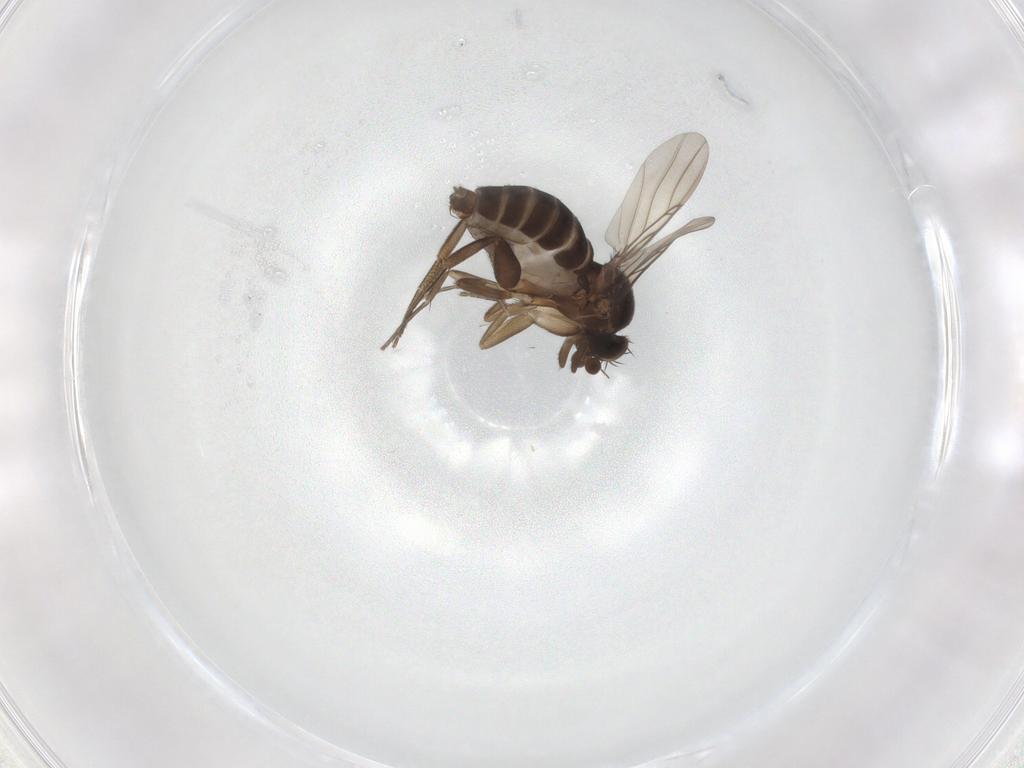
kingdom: Animalia
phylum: Arthropoda
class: Insecta
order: Diptera
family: Phoridae
